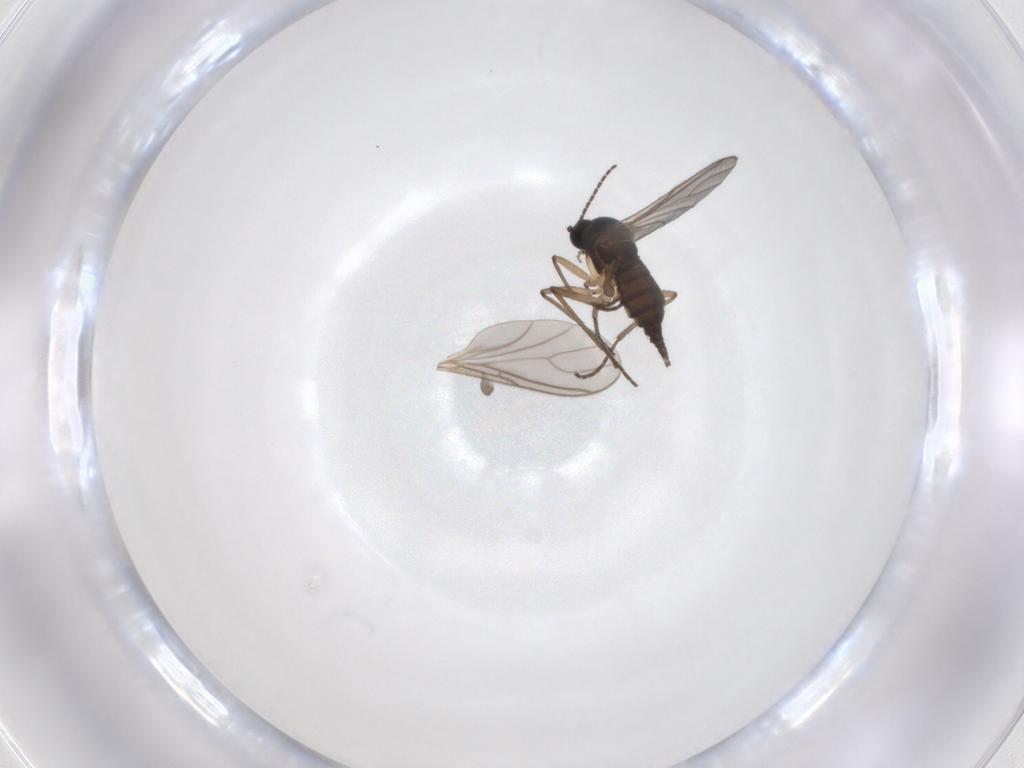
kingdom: Animalia
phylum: Arthropoda
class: Insecta
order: Diptera
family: Sciaridae
